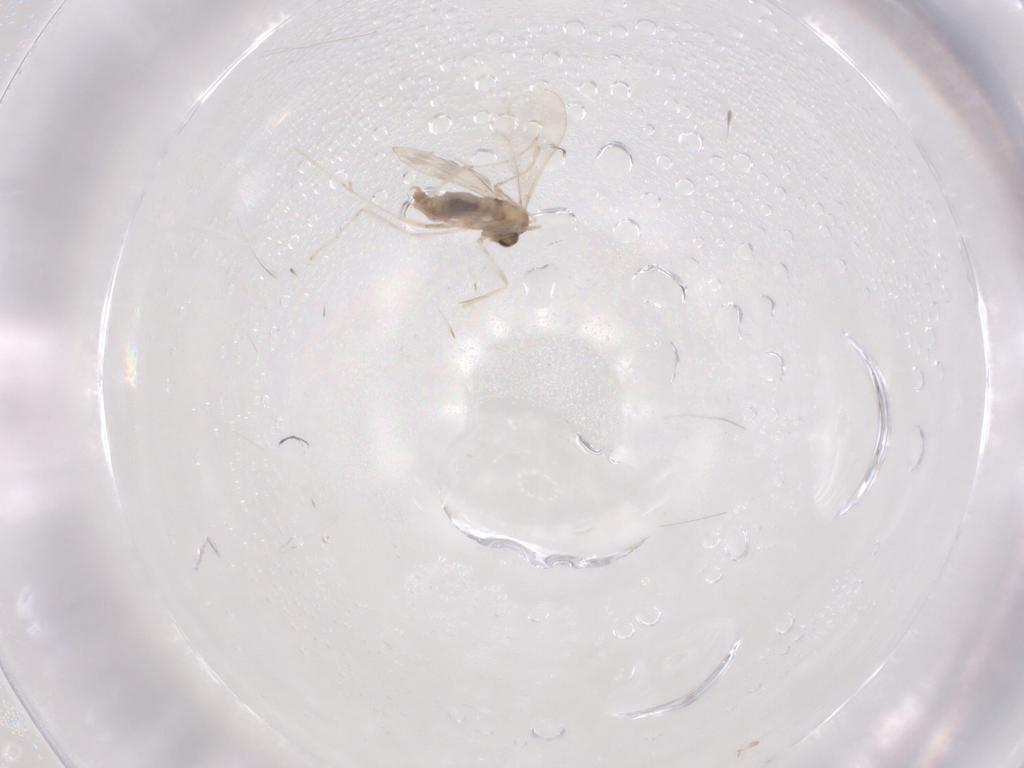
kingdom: Animalia
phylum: Arthropoda
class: Insecta
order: Diptera
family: Cecidomyiidae
